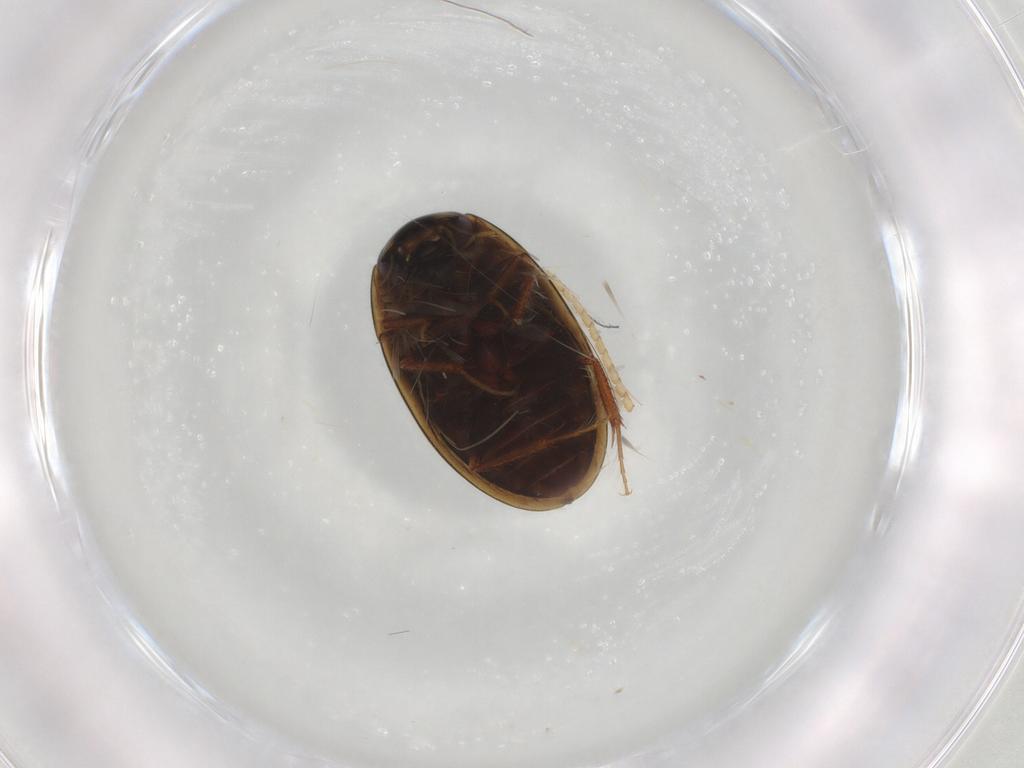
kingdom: Animalia
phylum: Arthropoda
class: Insecta
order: Coleoptera
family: Hydrophilidae
